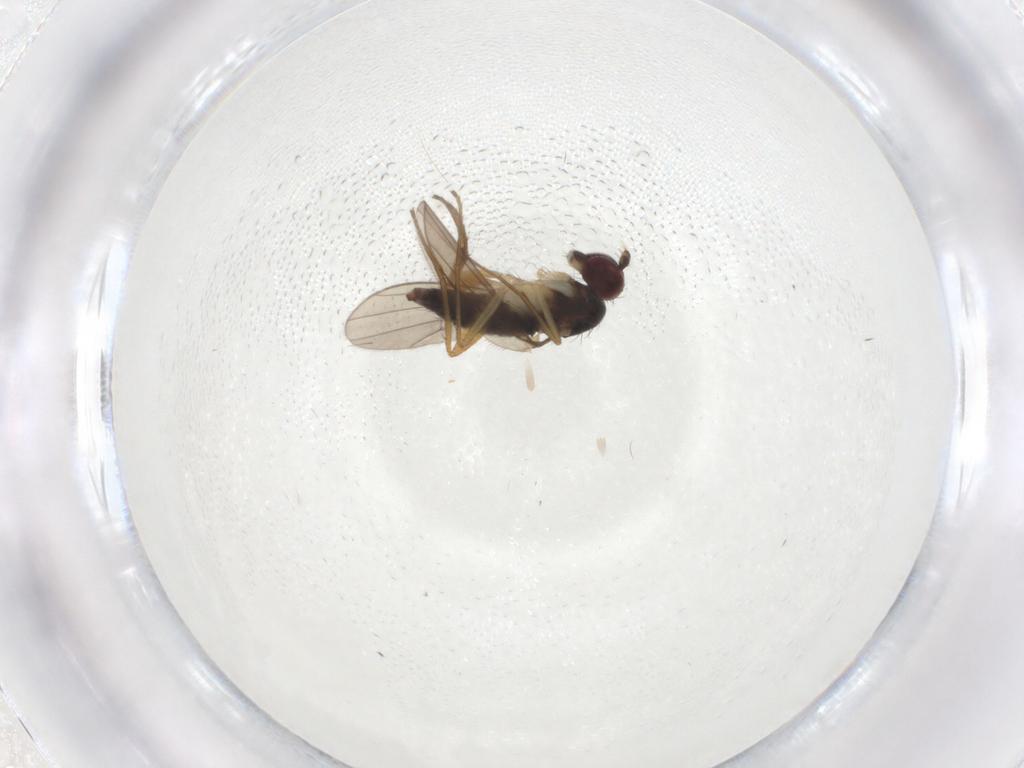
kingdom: Animalia
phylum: Arthropoda
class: Insecta
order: Diptera
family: Dolichopodidae
